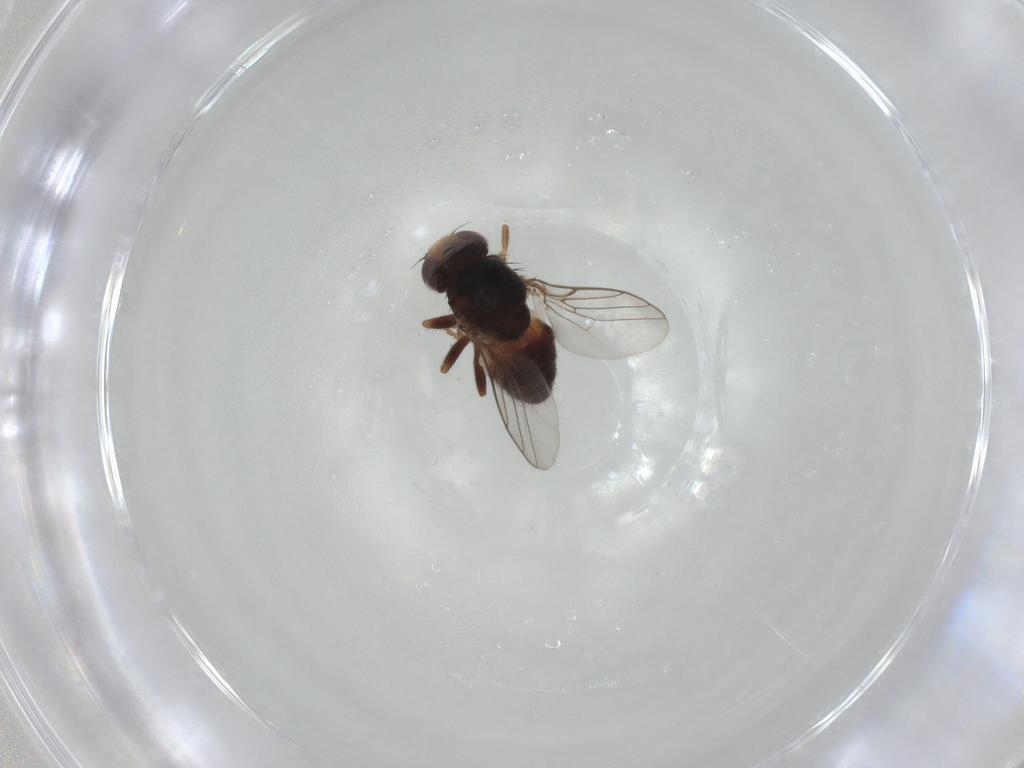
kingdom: Animalia
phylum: Arthropoda
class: Insecta
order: Diptera
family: Chloropidae
